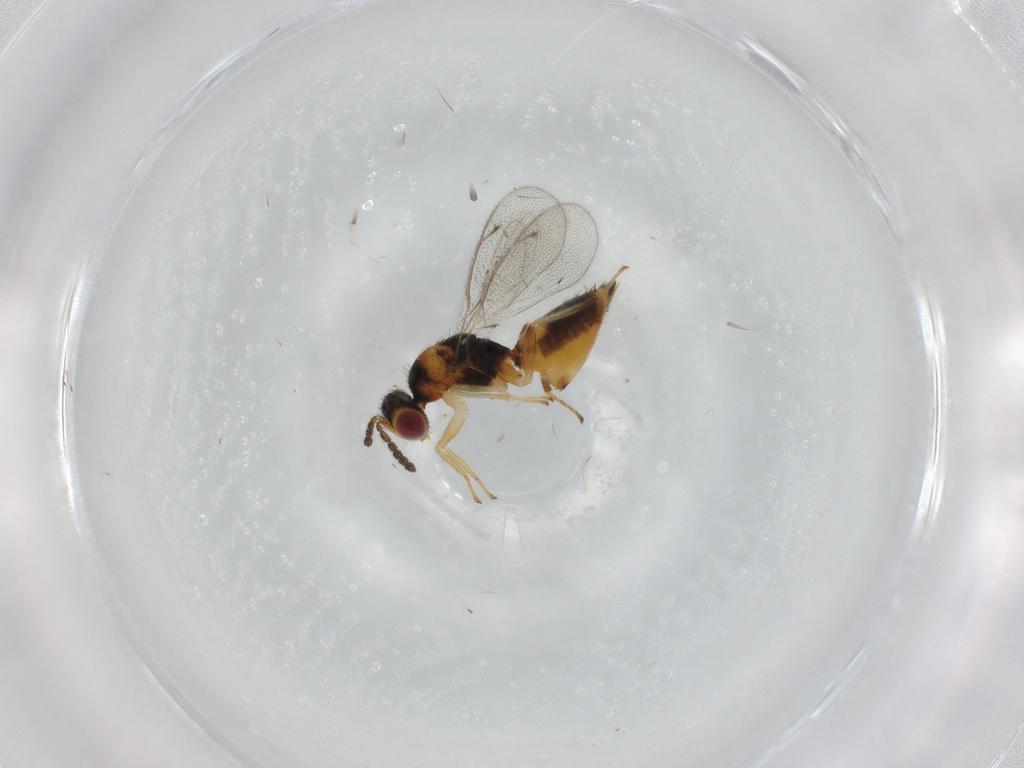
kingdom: Animalia
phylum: Arthropoda
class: Insecta
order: Hymenoptera
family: Eulophidae
